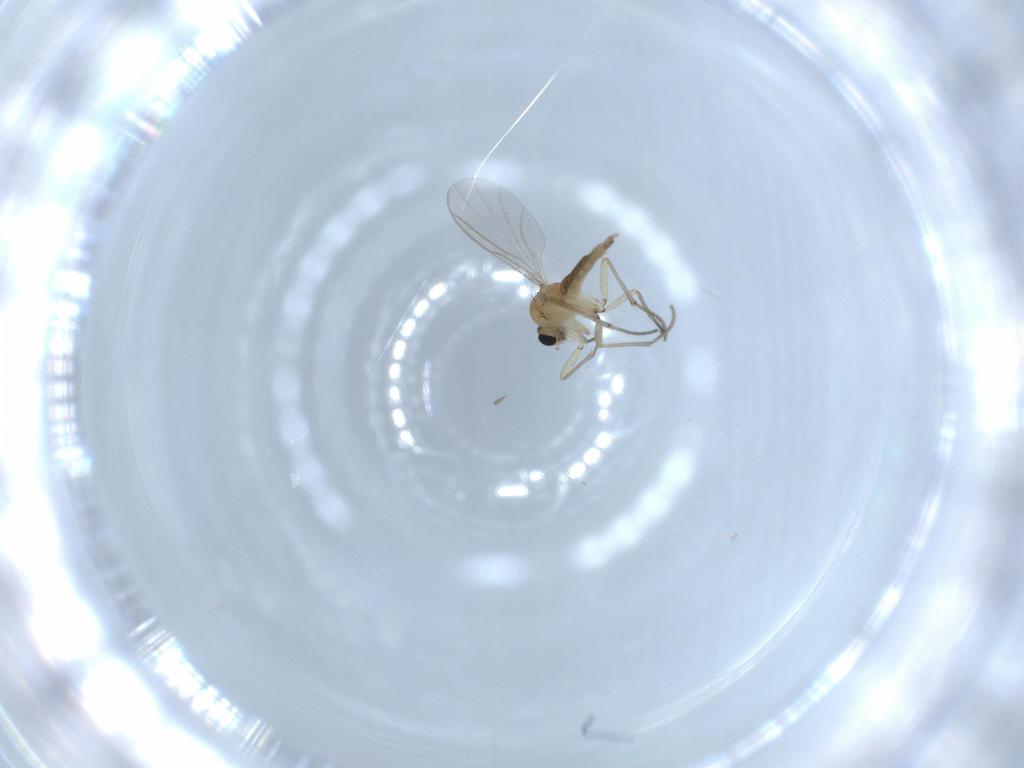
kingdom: Animalia
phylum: Arthropoda
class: Insecta
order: Diptera
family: Sciaridae
